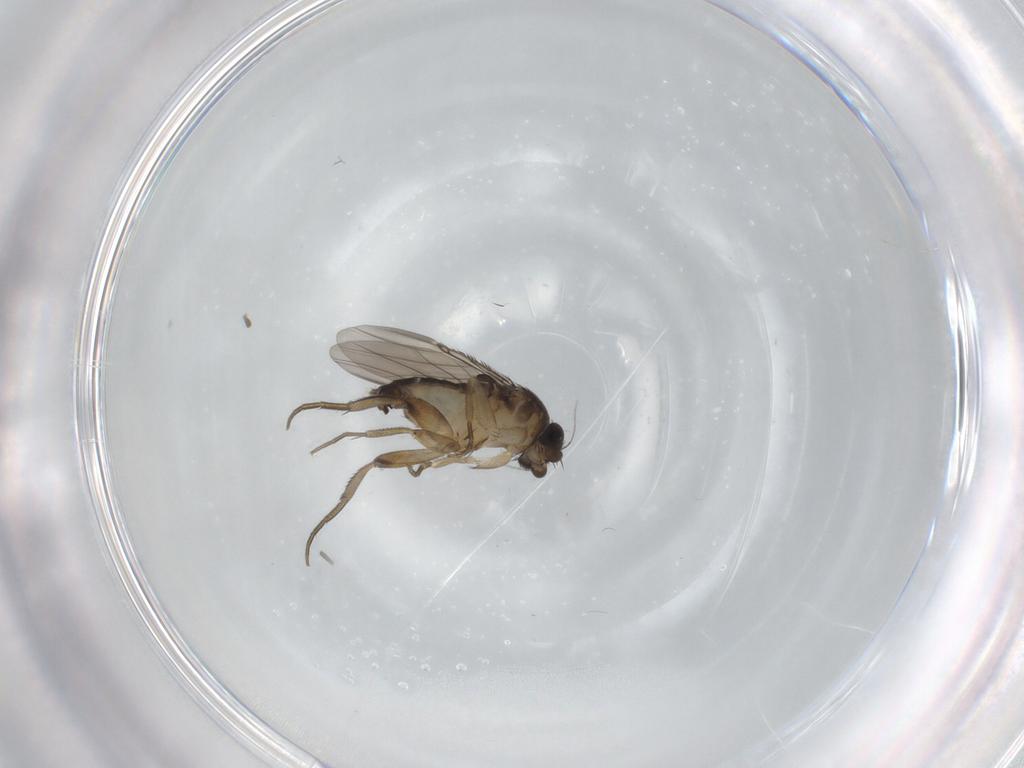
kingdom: Animalia
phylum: Arthropoda
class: Insecta
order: Diptera
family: Phoridae
